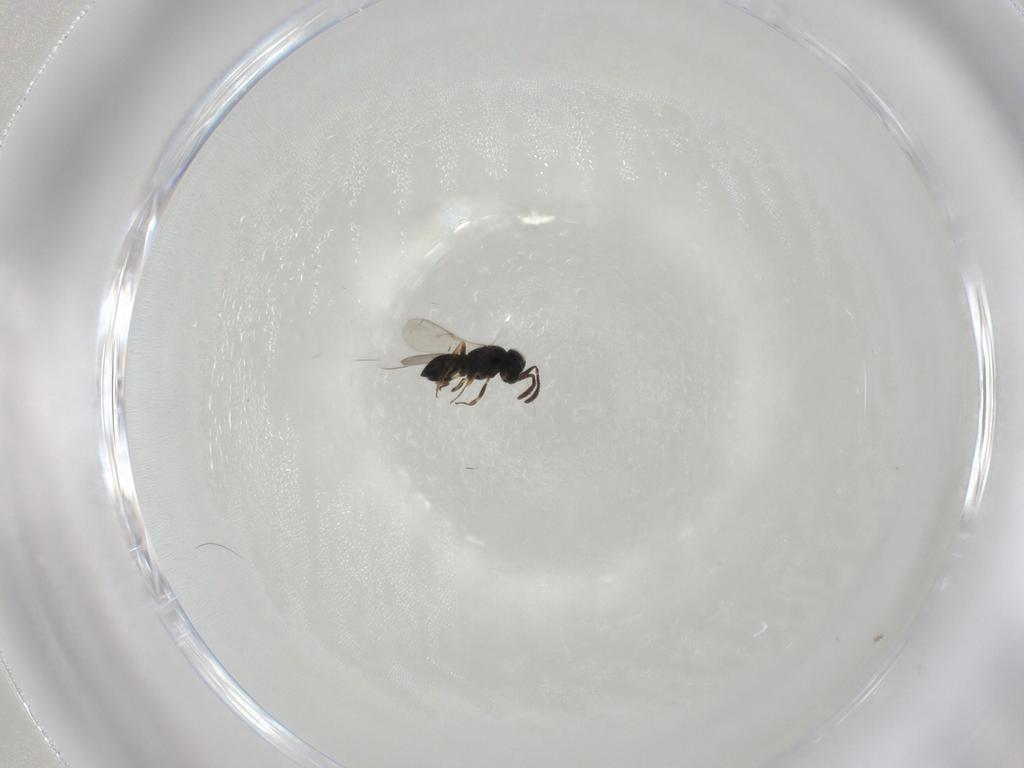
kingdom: Animalia
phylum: Arthropoda
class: Insecta
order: Hymenoptera
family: Scelionidae
